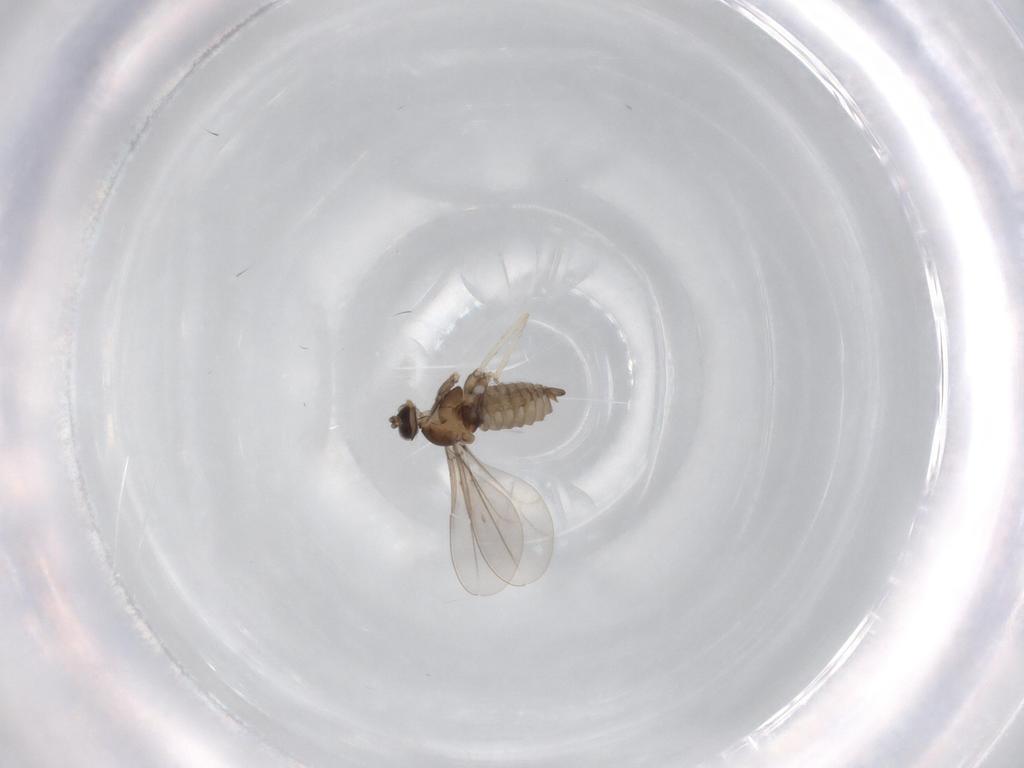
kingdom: Animalia
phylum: Arthropoda
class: Insecta
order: Diptera
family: Cecidomyiidae
